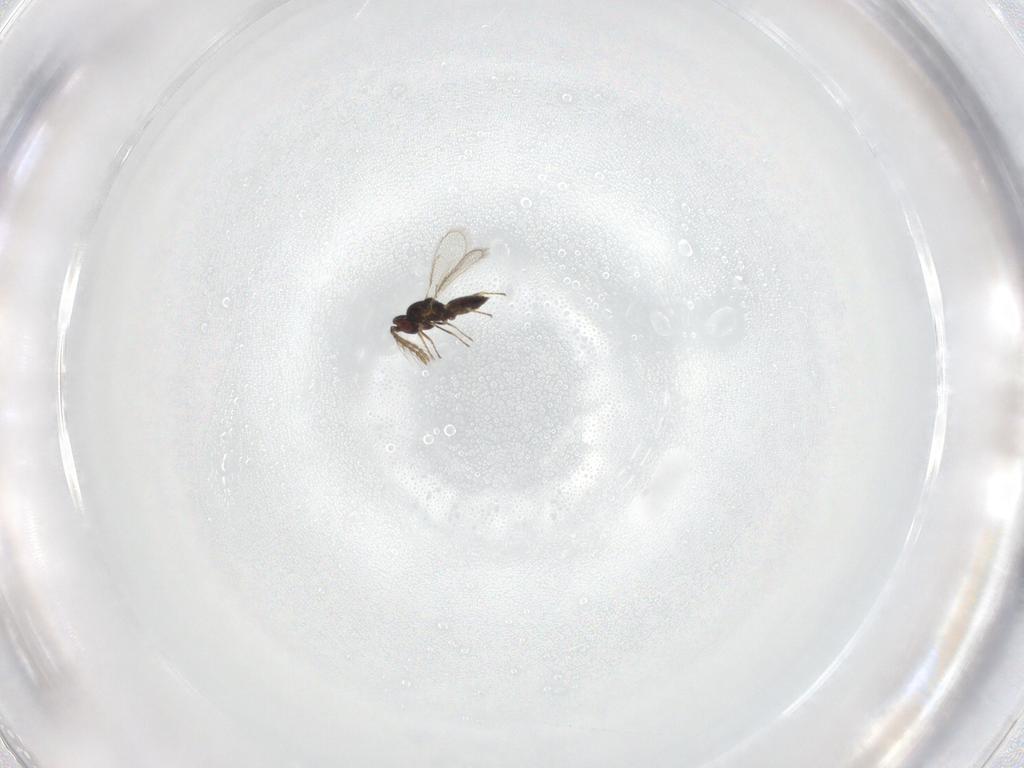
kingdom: Animalia
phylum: Arthropoda
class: Insecta
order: Hymenoptera
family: Eulophidae
